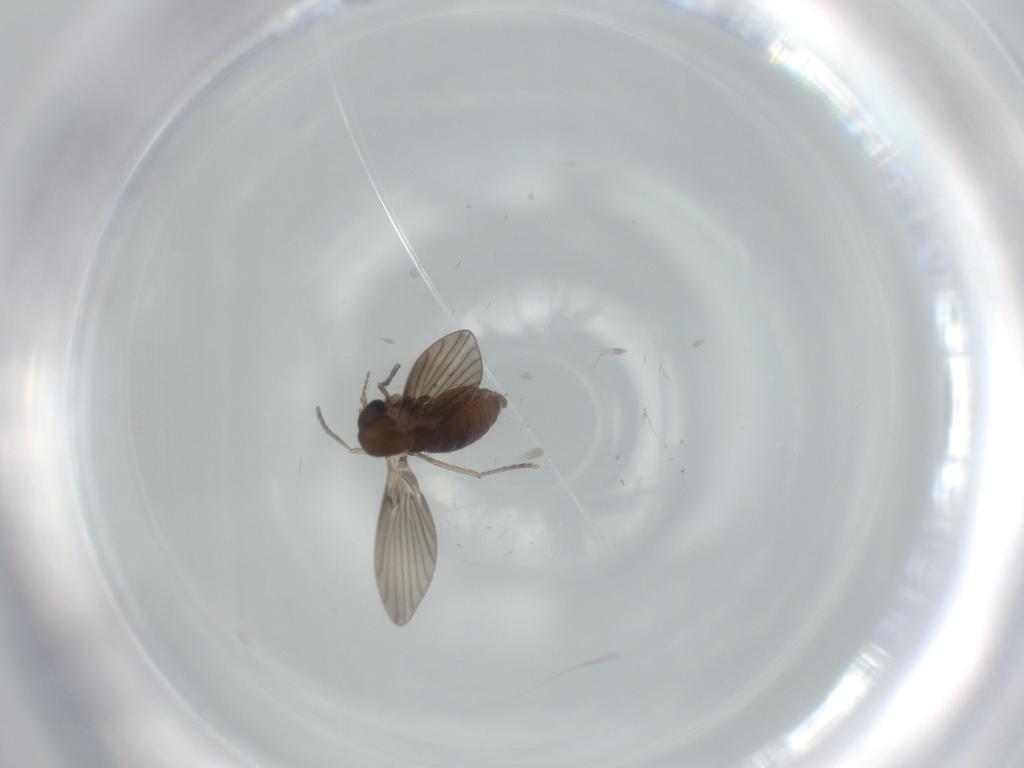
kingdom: Animalia
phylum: Arthropoda
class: Insecta
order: Diptera
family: Psychodidae
